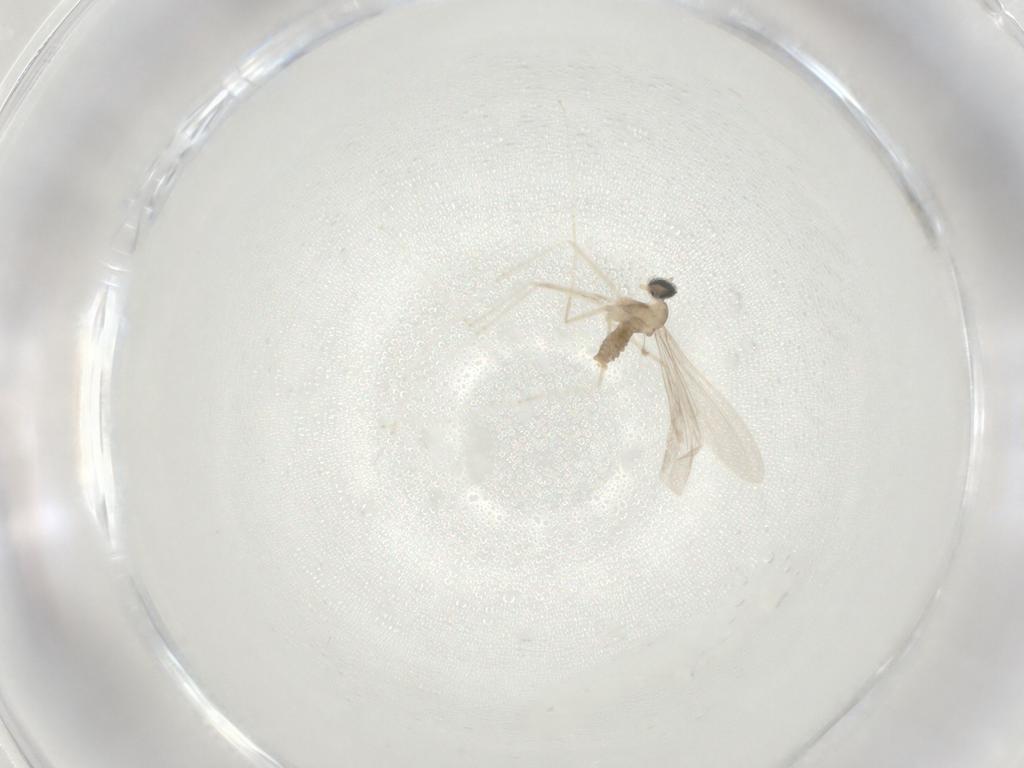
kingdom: Animalia
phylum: Arthropoda
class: Insecta
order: Diptera
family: Cecidomyiidae
